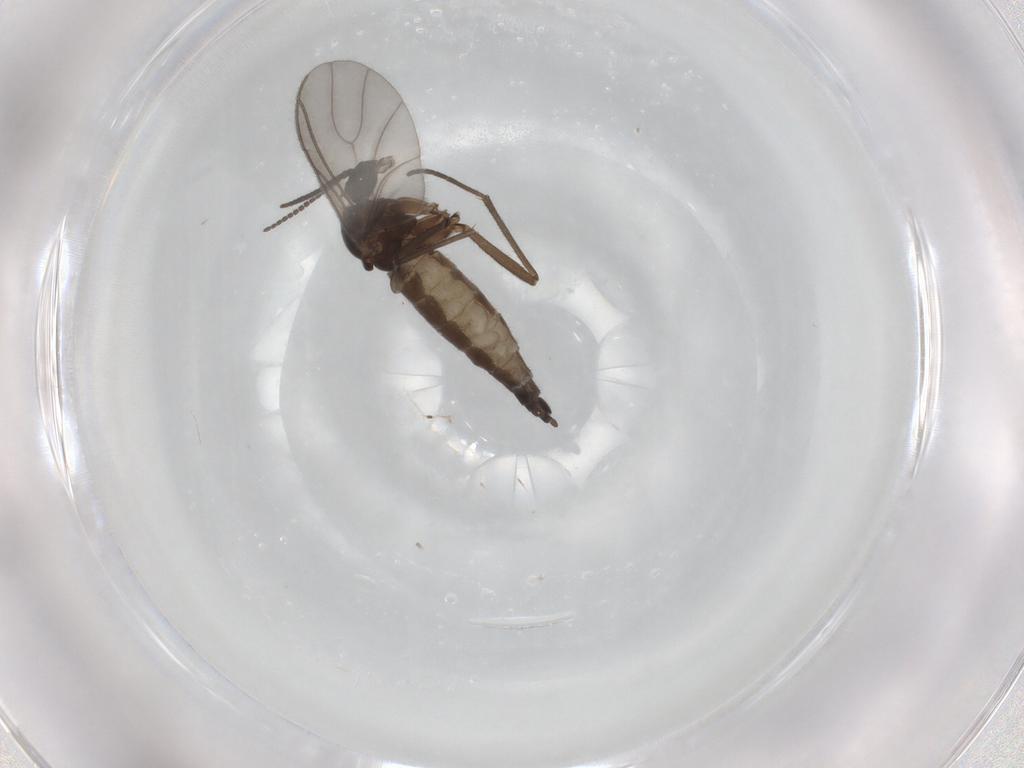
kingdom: Animalia
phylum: Arthropoda
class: Insecta
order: Diptera
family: Sciaridae
